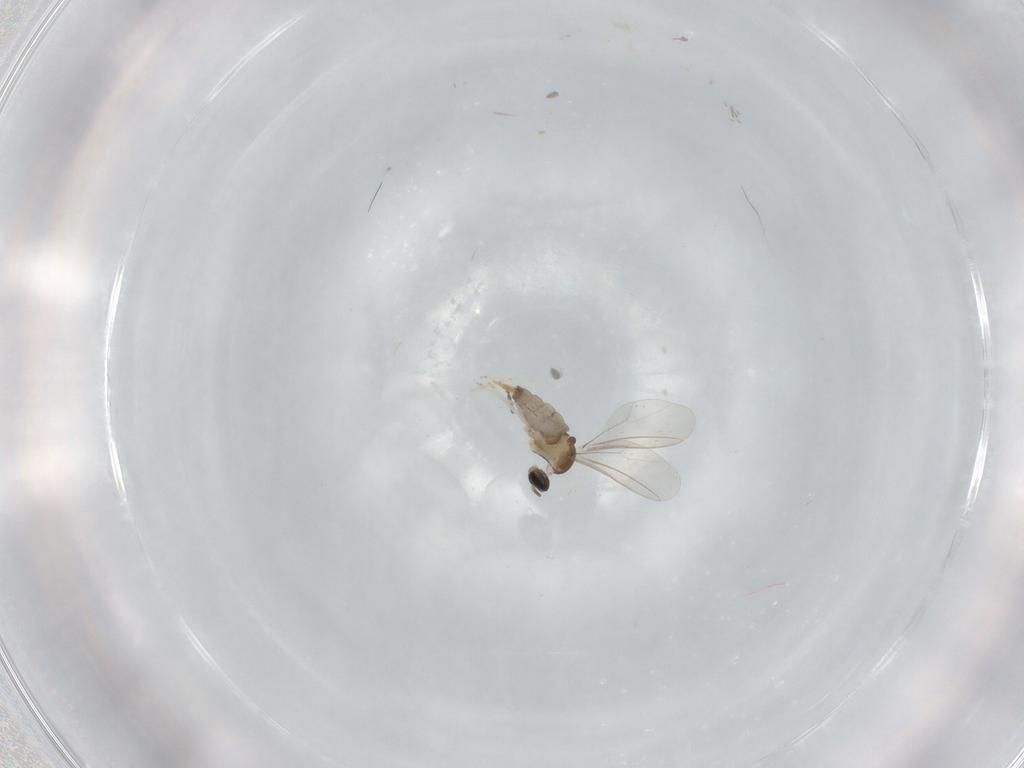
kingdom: Animalia
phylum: Arthropoda
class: Insecta
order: Diptera
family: Cecidomyiidae
